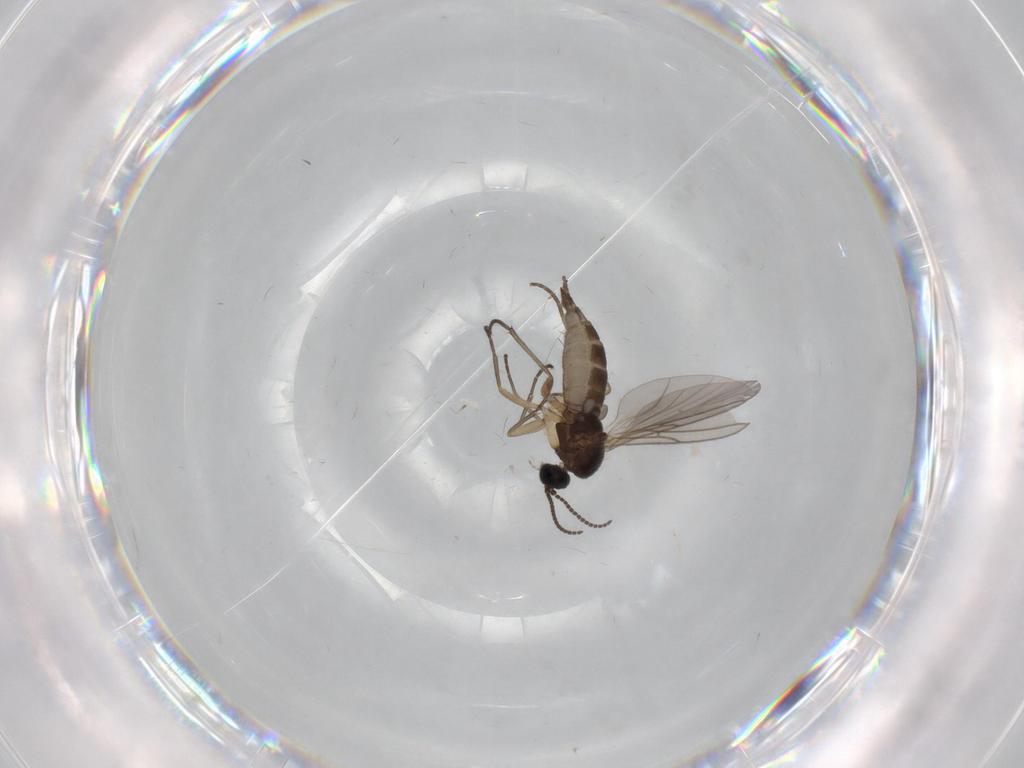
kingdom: Animalia
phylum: Arthropoda
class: Insecta
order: Diptera
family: Sciaridae
